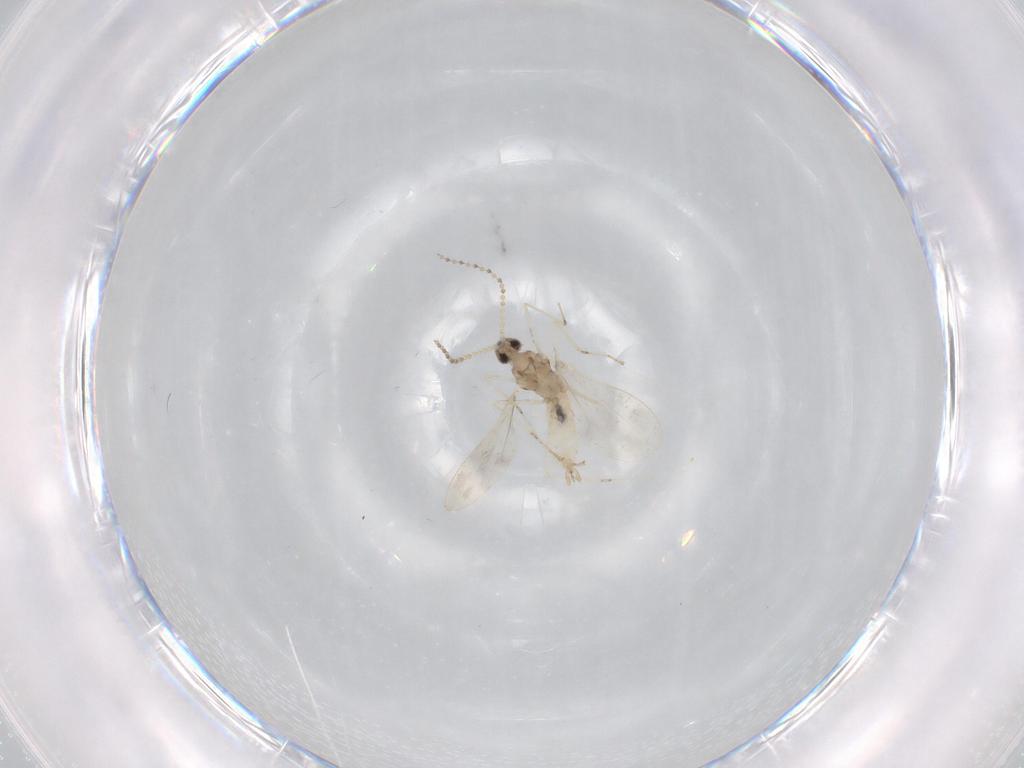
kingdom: Animalia
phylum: Arthropoda
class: Insecta
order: Diptera
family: Cecidomyiidae
